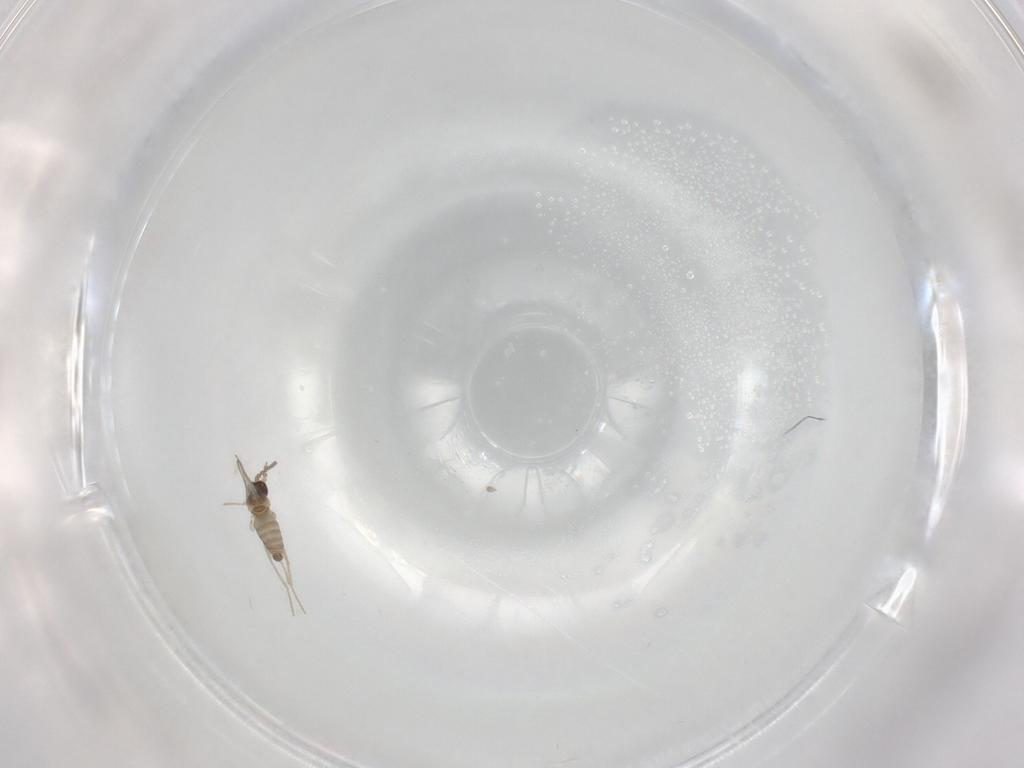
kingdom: Animalia
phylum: Arthropoda
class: Insecta
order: Diptera
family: Cecidomyiidae
